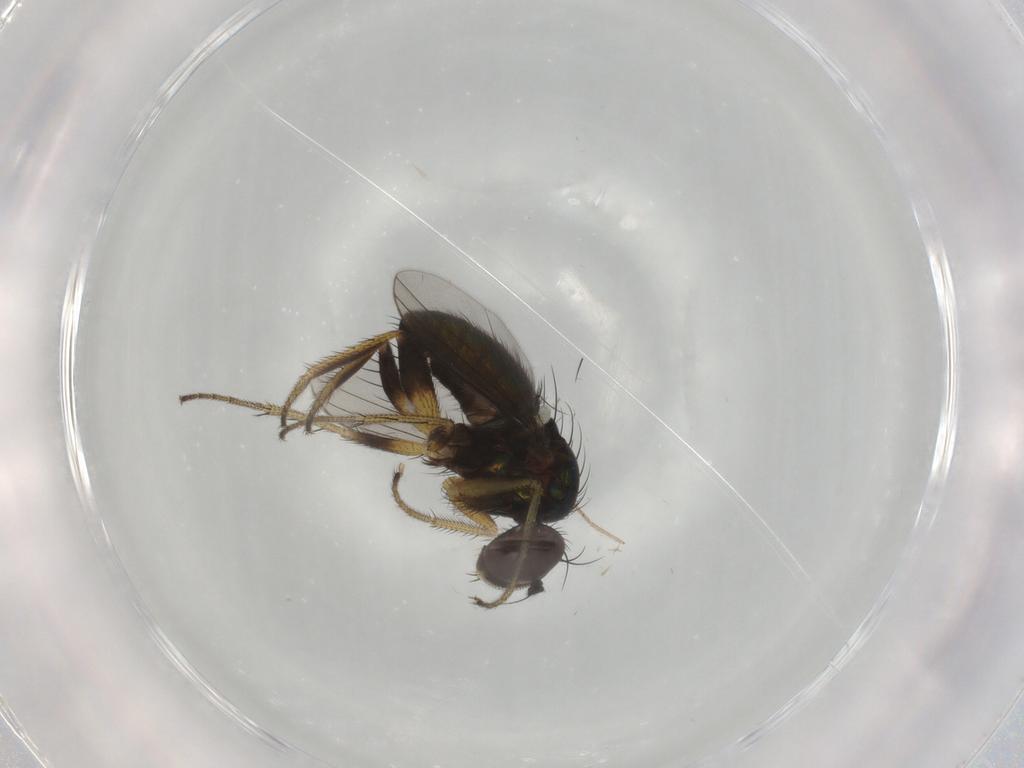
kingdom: Animalia
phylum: Arthropoda
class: Insecta
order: Diptera
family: Dolichopodidae
